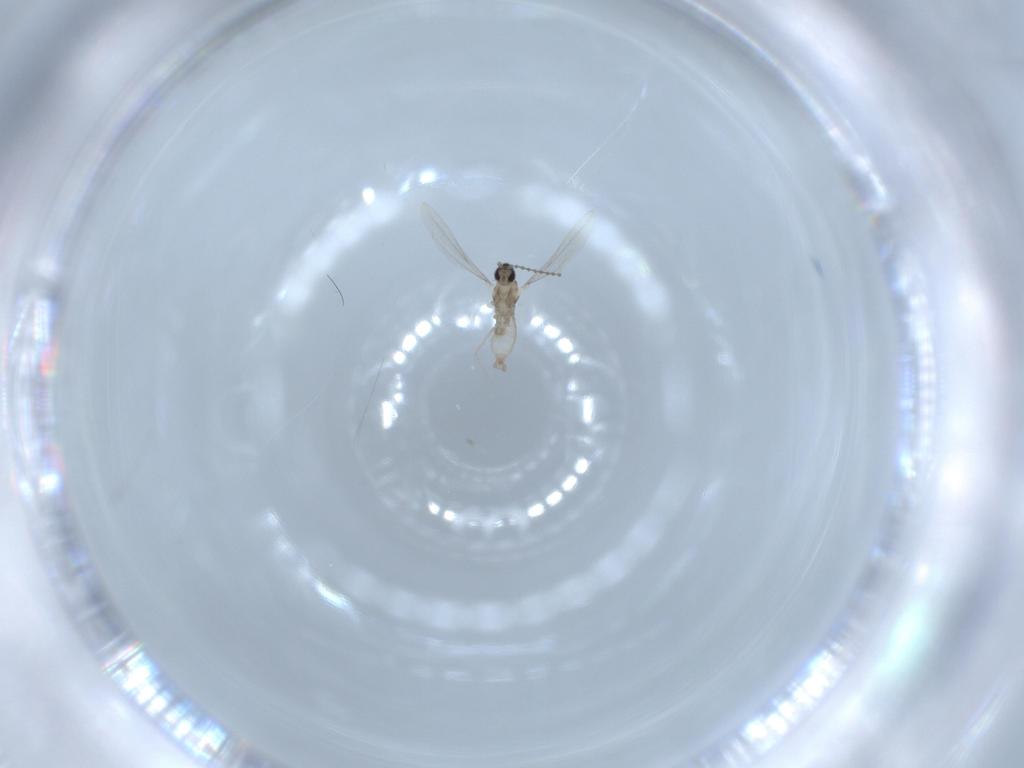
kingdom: Animalia
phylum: Arthropoda
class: Insecta
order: Diptera
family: Cecidomyiidae
